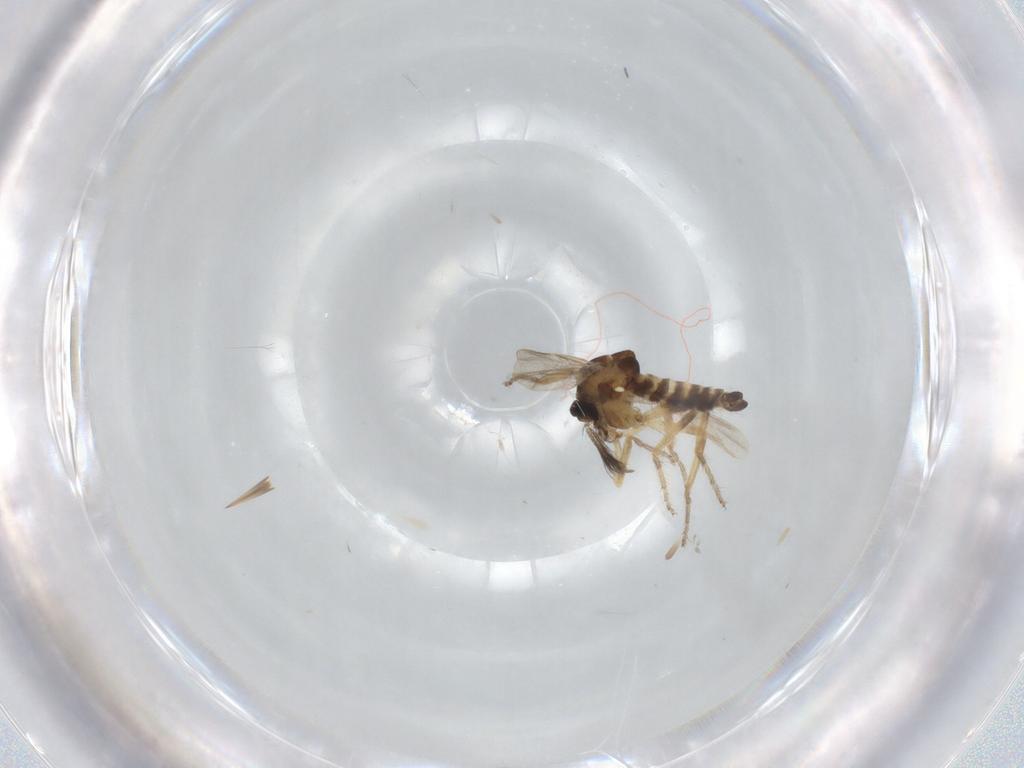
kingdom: Animalia
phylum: Arthropoda
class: Insecta
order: Diptera
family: Ceratopogonidae
